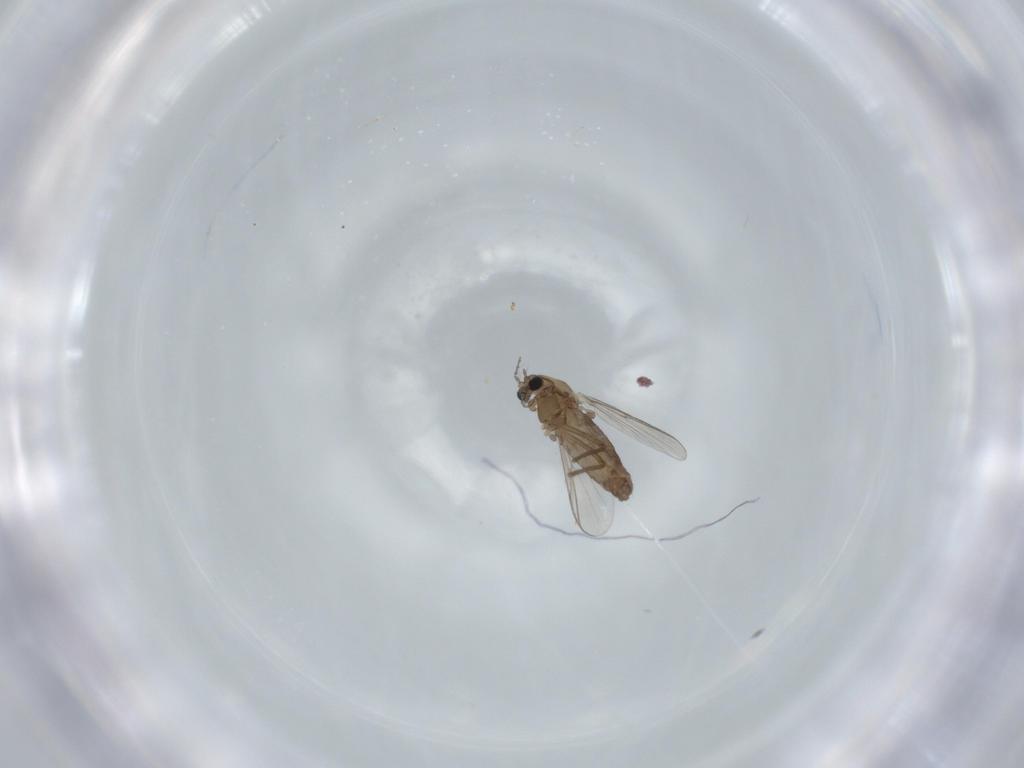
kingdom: Animalia
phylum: Arthropoda
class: Insecta
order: Diptera
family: Chironomidae
